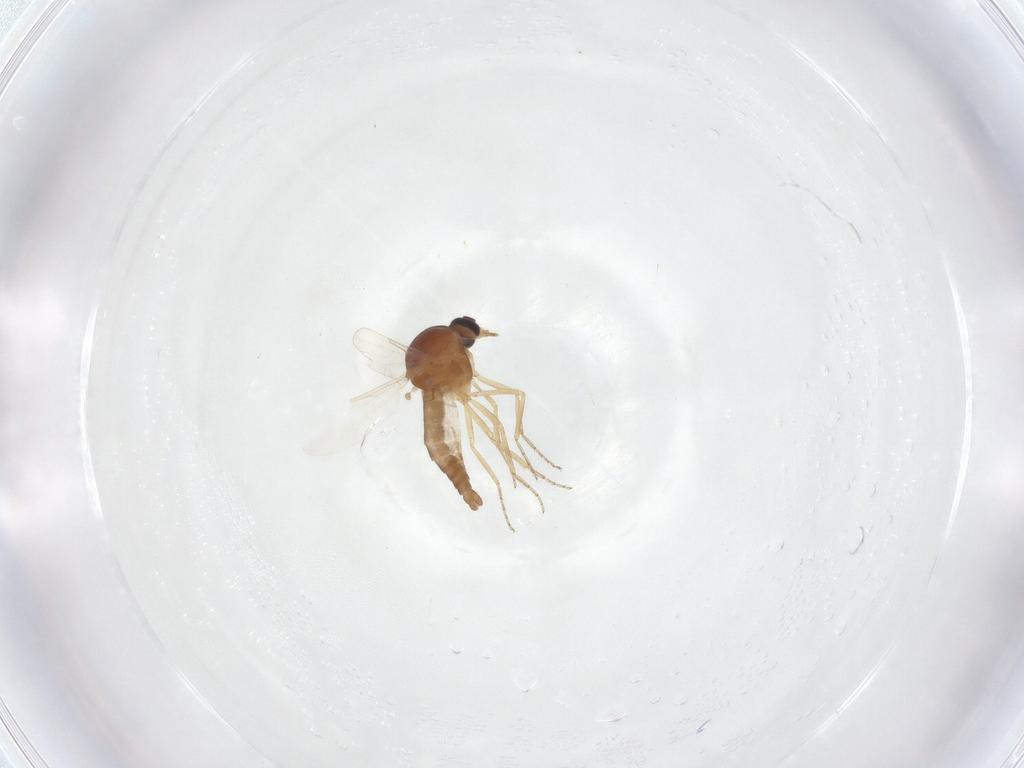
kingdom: Animalia
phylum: Arthropoda
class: Insecta
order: Diptera
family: Ceratopogonidae
